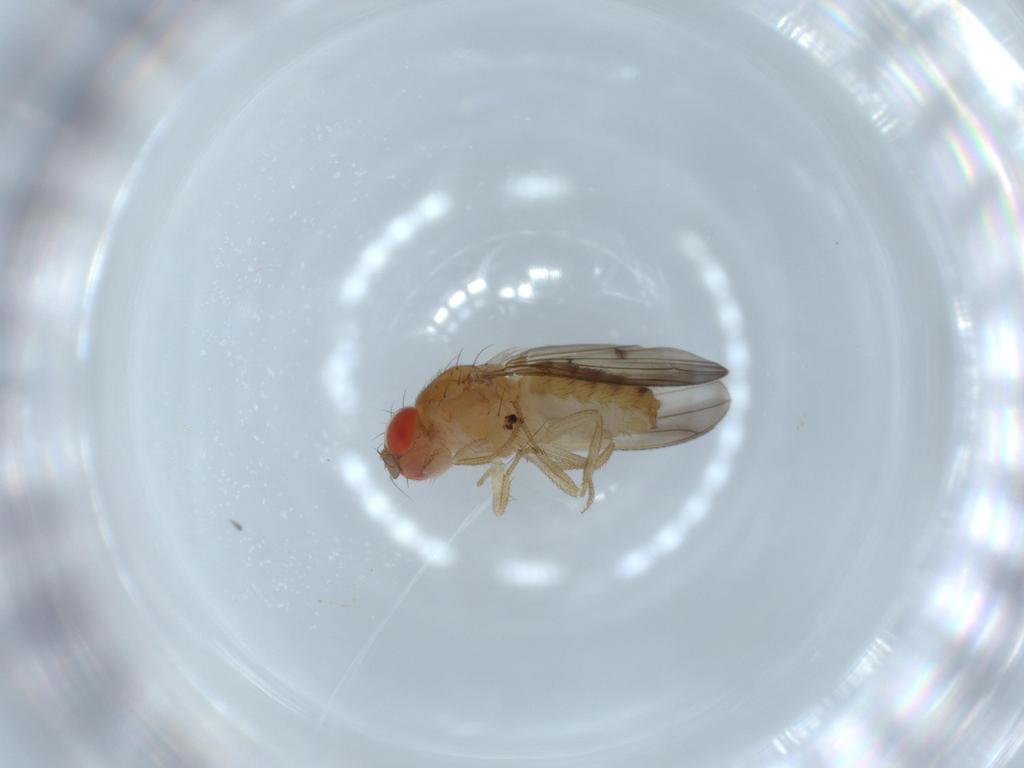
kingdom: Animalia
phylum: Arthropoda
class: Insecta
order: Diptera
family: Drosophilidae
